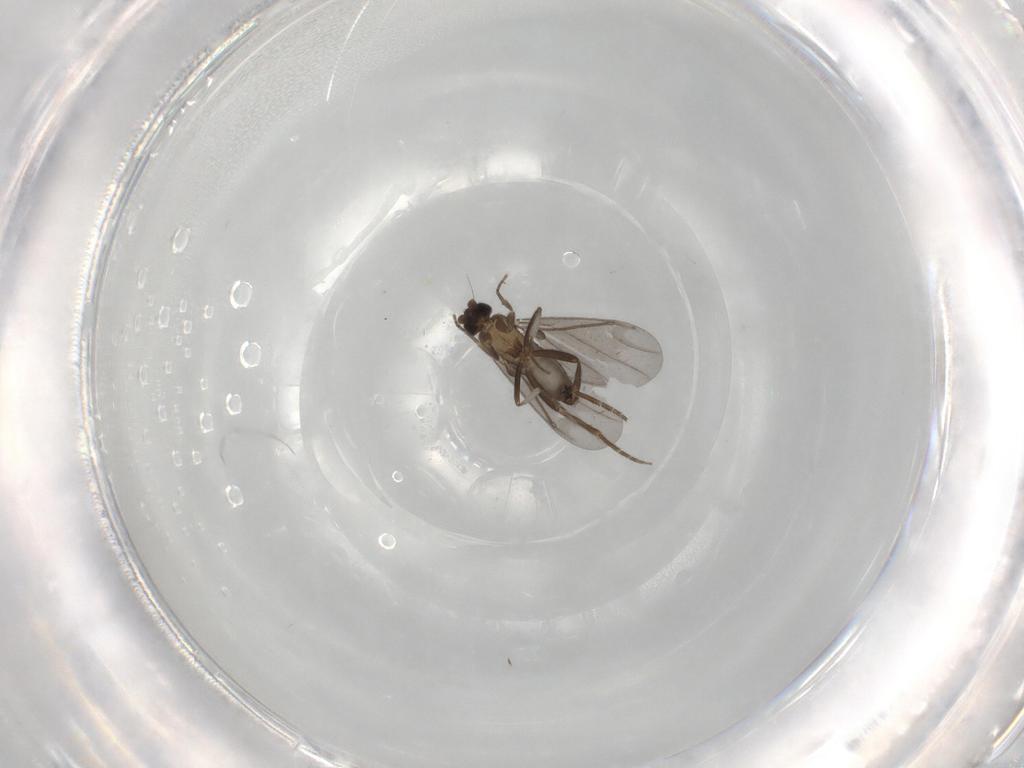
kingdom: Animalia
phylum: Arthropoda
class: Insecta
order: Diptera
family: Phoridae
